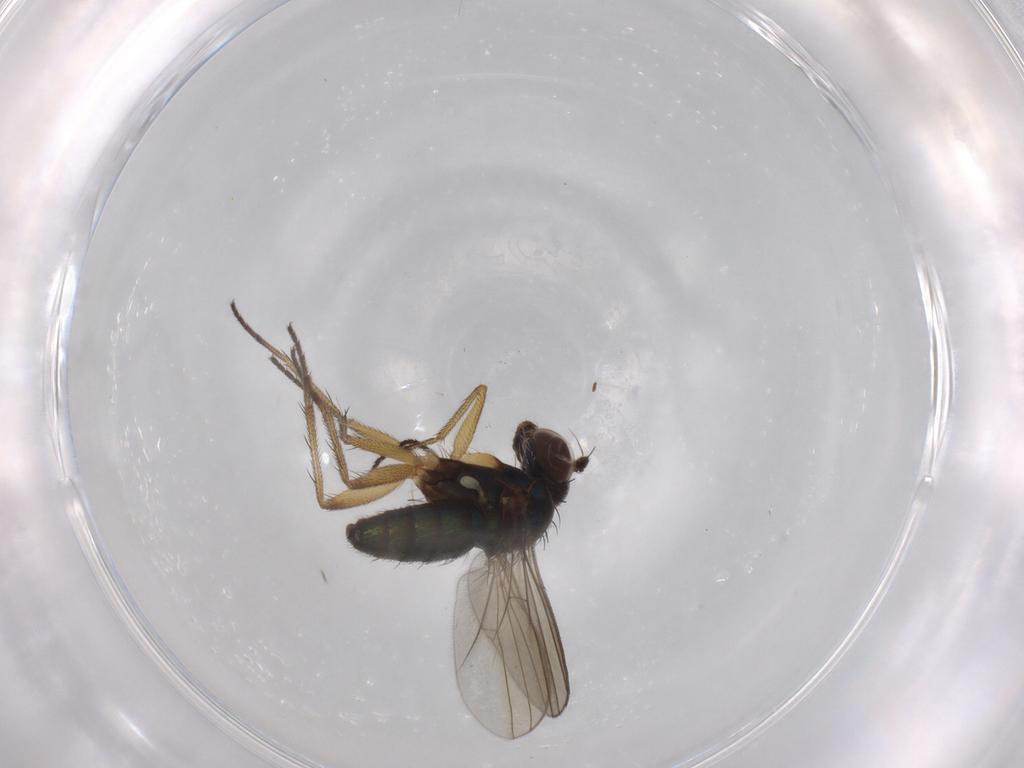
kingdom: Animalia
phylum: Arthropoda
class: Insecta
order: Diptera
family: Dolichopodidae
